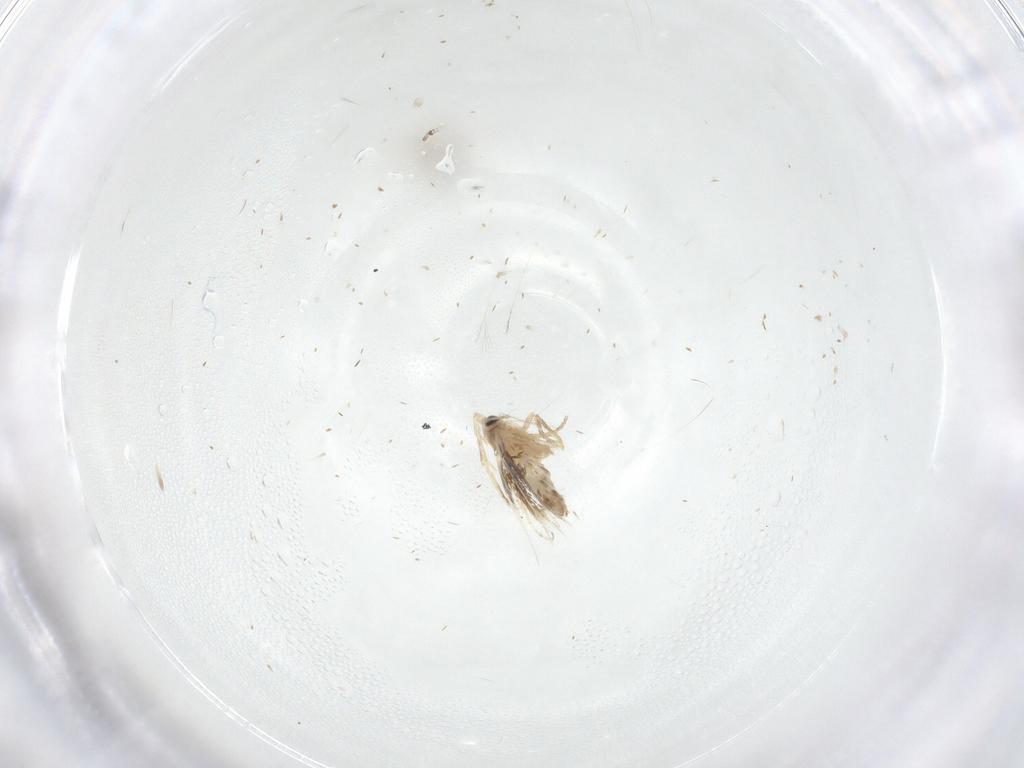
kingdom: Animalia
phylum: Arthropoda
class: Insecta
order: Lepidoptera
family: Nepticulidae
